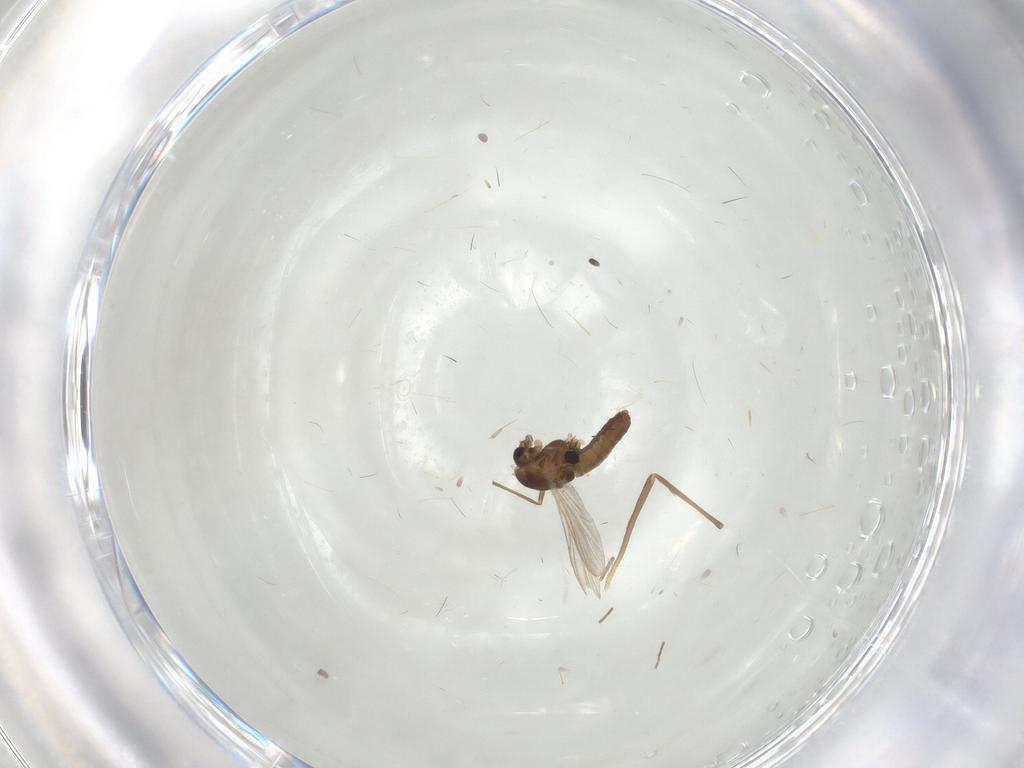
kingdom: Animalia
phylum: Arthropoda
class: Insecta
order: Diptera
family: Chironomidae
